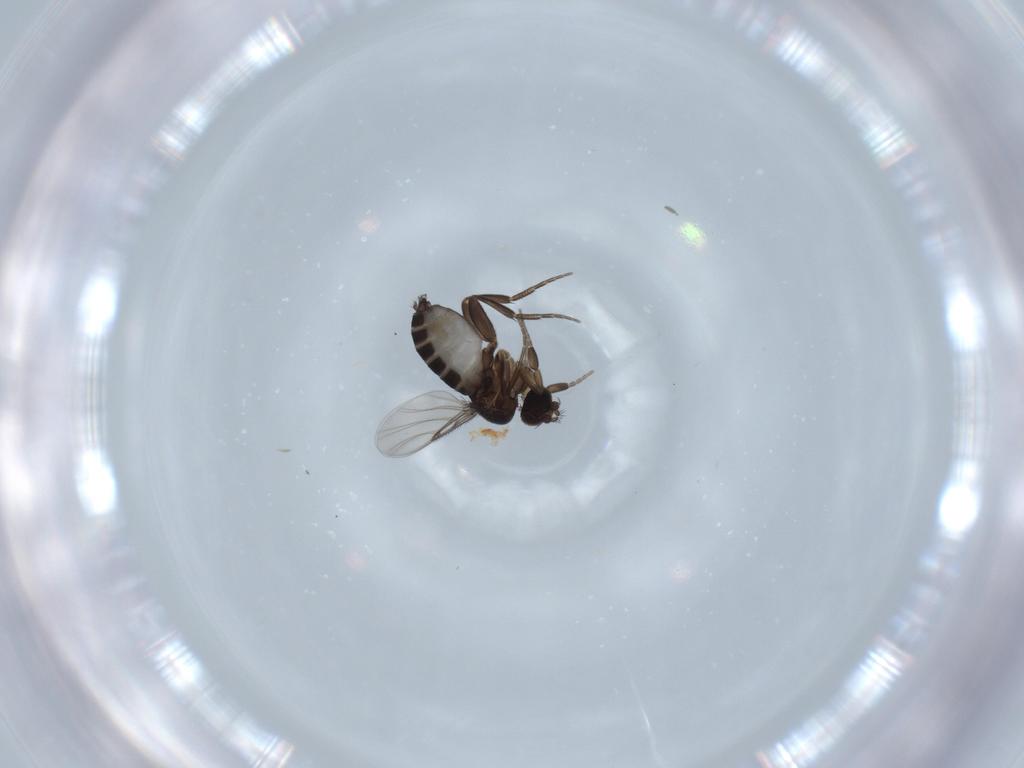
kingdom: Animalia
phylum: Arthropoda
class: Insecta
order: Diptera
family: Phoridae
